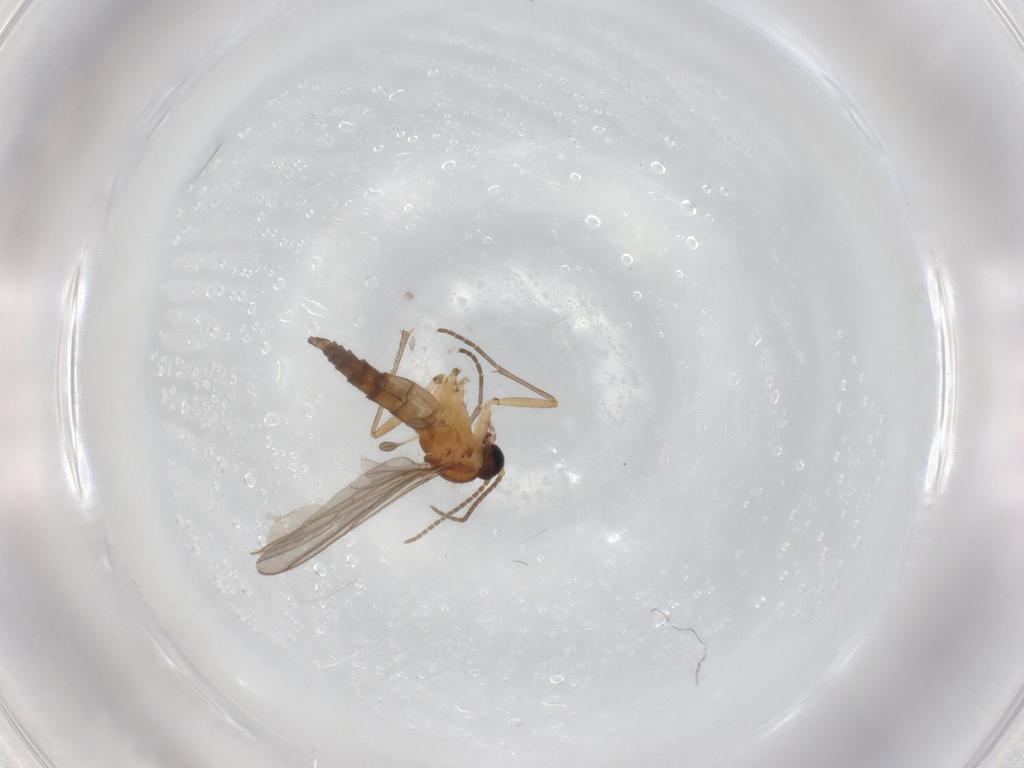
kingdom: Animalia
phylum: Arthropoda
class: Insecta
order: Diptera
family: Sciaridae
